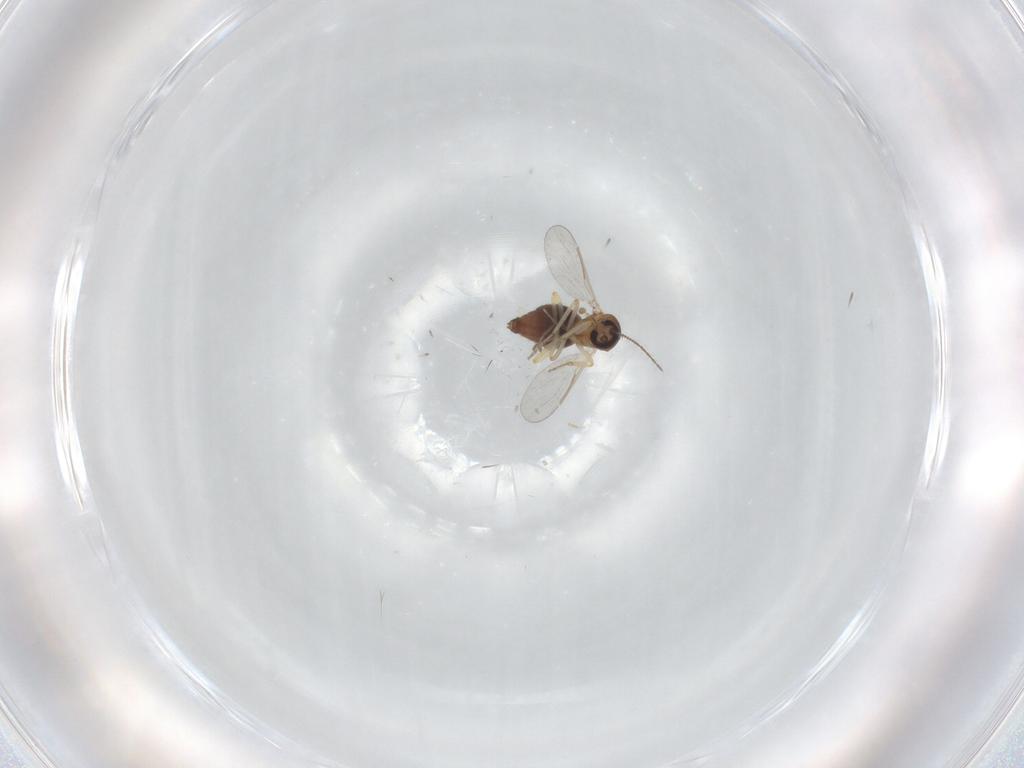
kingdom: Animalia
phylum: Arthropoda
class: Insecta
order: Diptera
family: Ceratopogonidae
